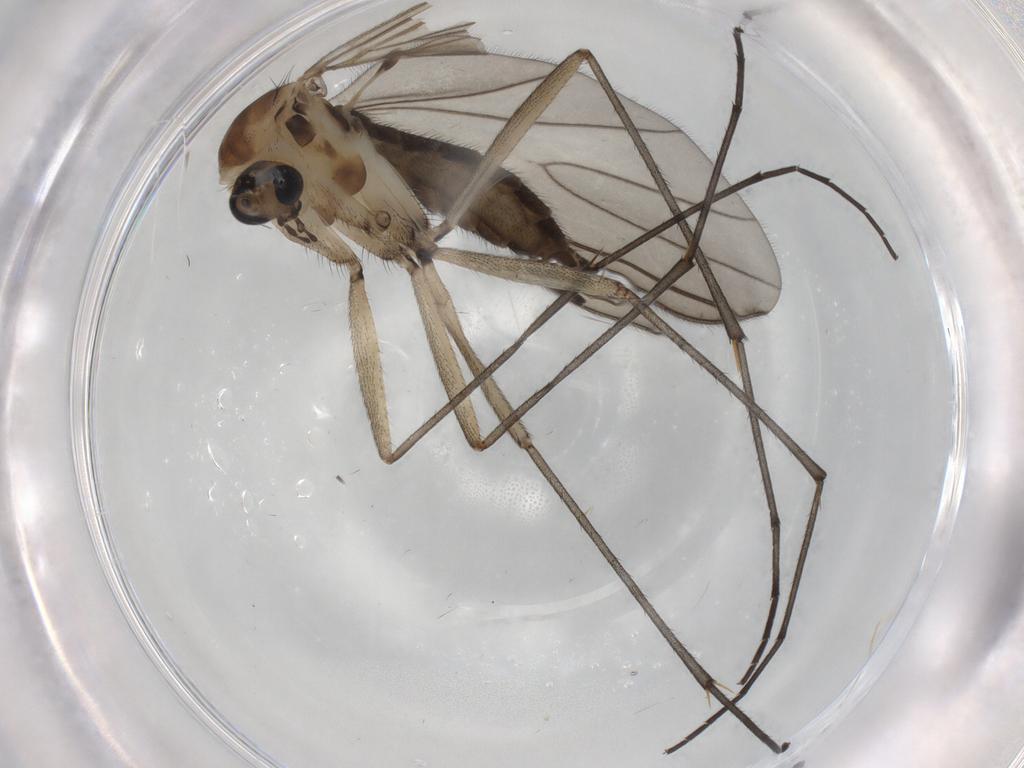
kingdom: Animalia
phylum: Arthropoda
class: Insecta
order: Diptera
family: Sciaridae
